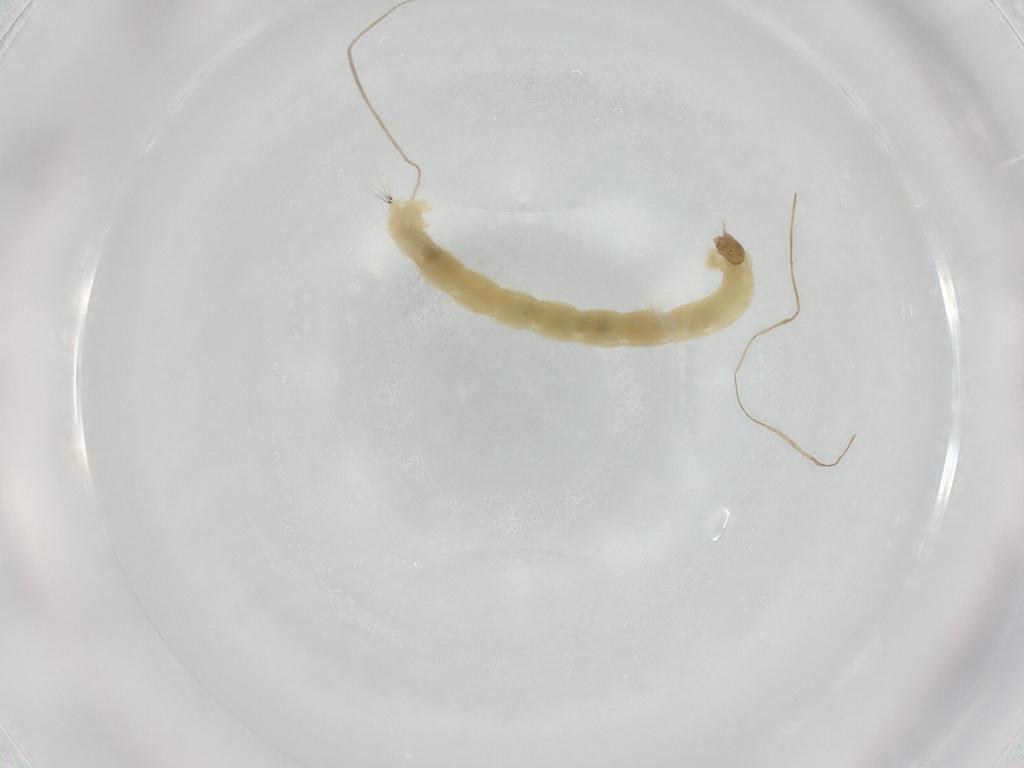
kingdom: Animalia
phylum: Arthropoda
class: Insecta
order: Diptera
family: Chironomidae
